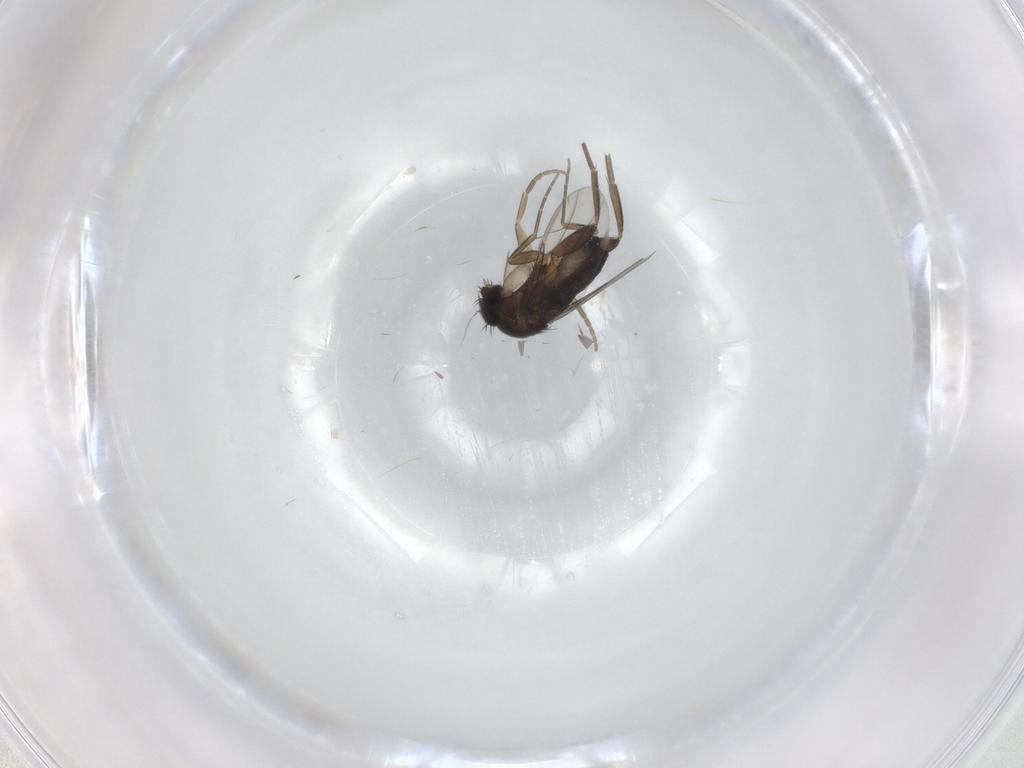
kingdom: Animalia
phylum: Arthropoda
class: Insecta
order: Diptera
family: Phoridae
